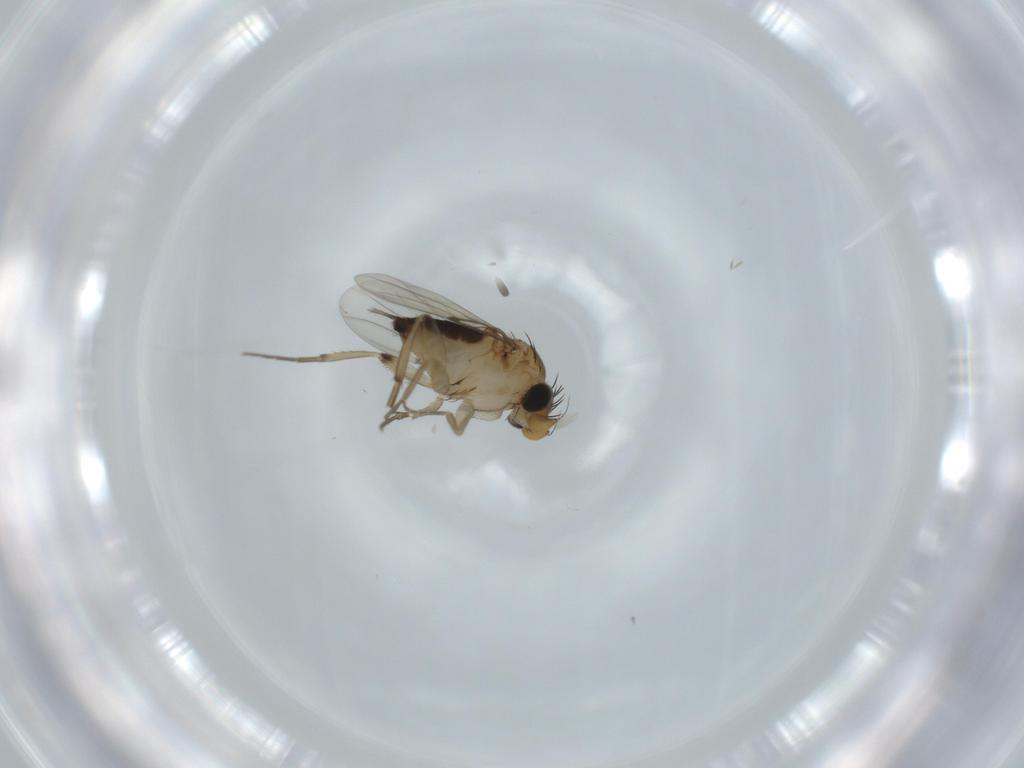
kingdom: Animalia
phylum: Arthropoda
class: Insecta
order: Diptera
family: Phoridae
